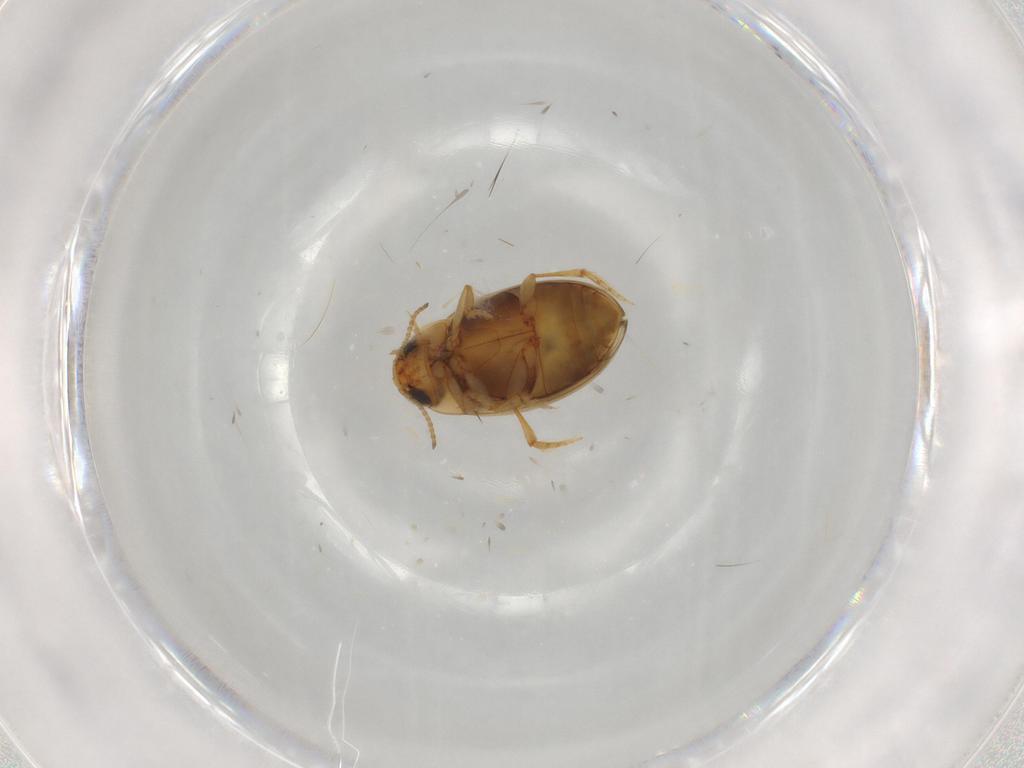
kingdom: Animalia
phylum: Arthropoda
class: Insecta
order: Coleoptera
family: Dytiscidae
